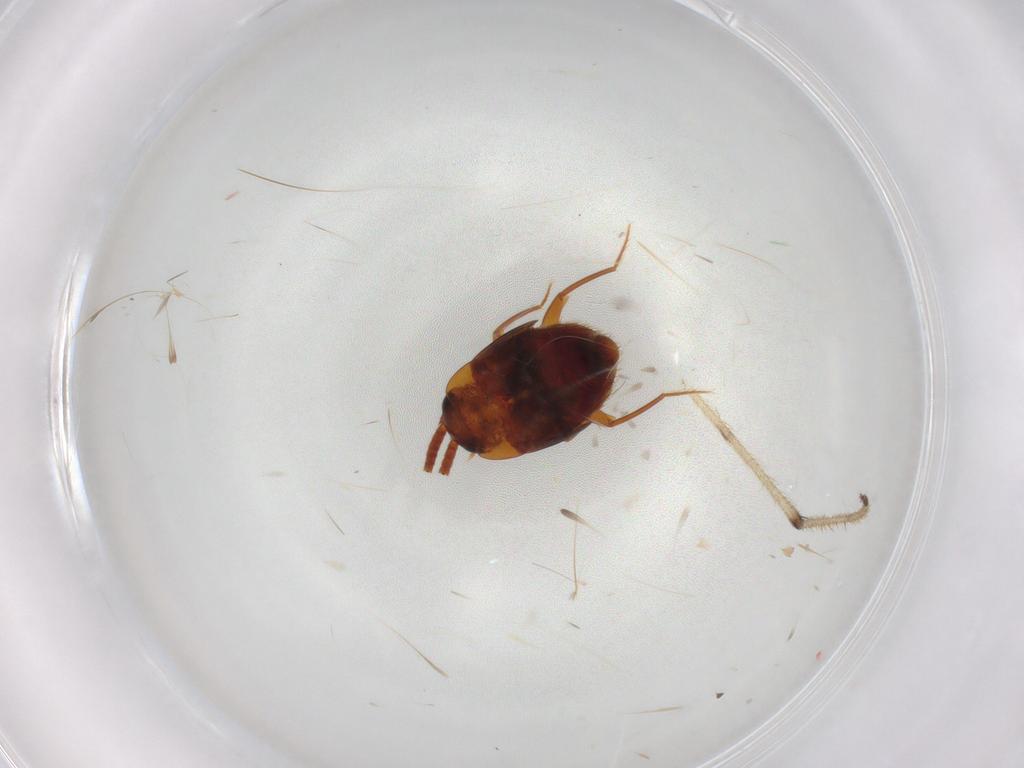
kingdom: Animalia
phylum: Arthropoda
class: Insecta
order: Coleoptera
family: Staphylinidae
